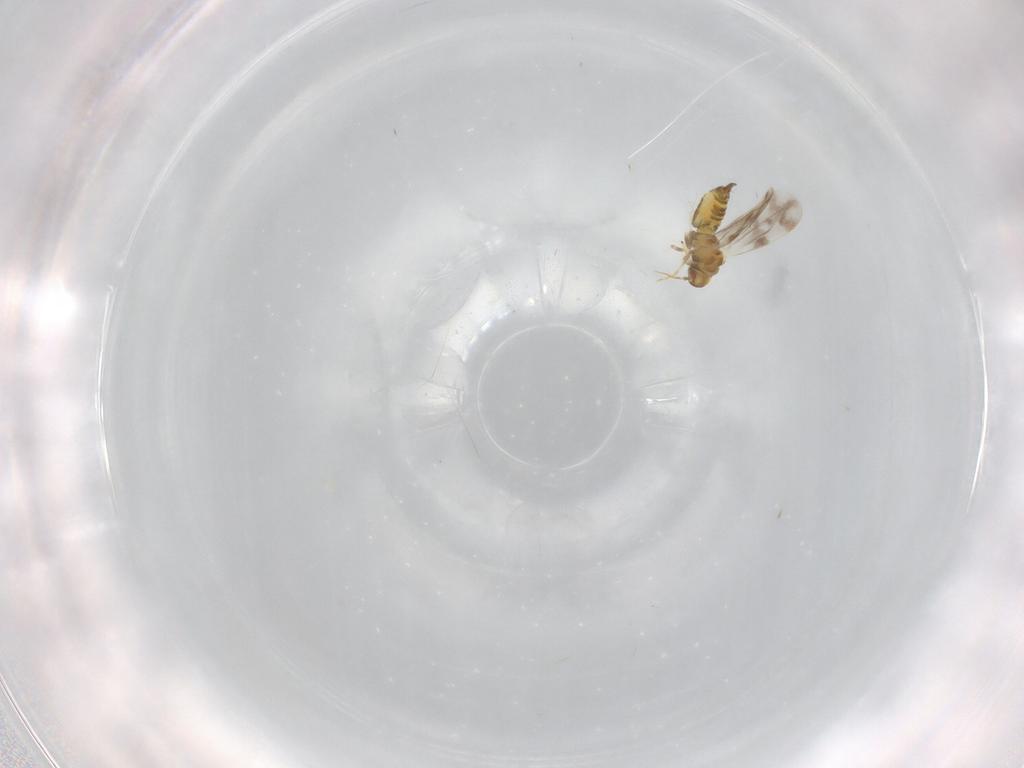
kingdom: Animalia
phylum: Arthropoda
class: Insecta
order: Hemiptera
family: Aleyrodidae
